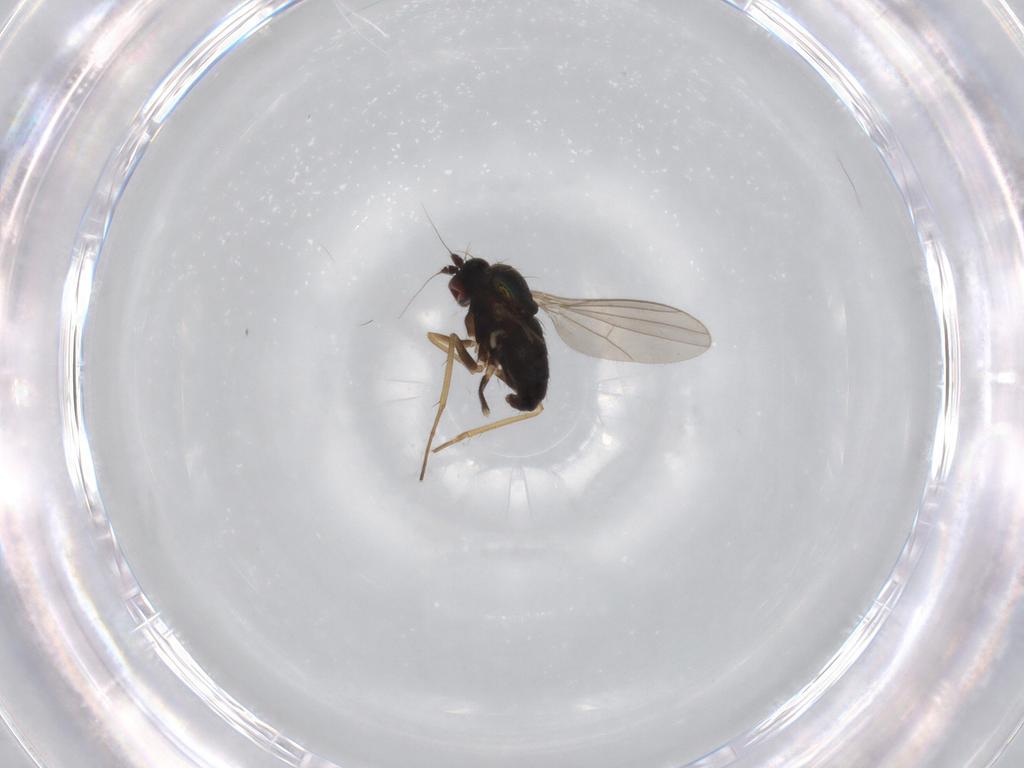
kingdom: Animalia
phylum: Arthropoda
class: Insecta
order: Diptera
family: Dolichopodidae
